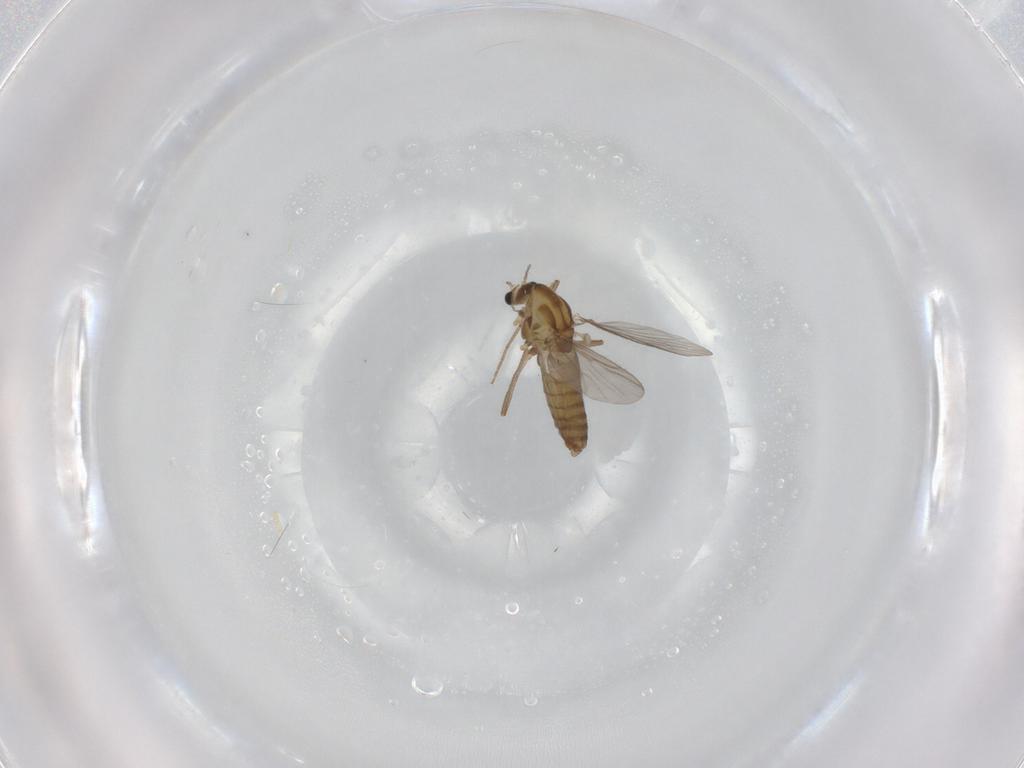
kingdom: Animalia
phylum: Arthropoda
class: Insecta
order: Diptera
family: Chironomidae
